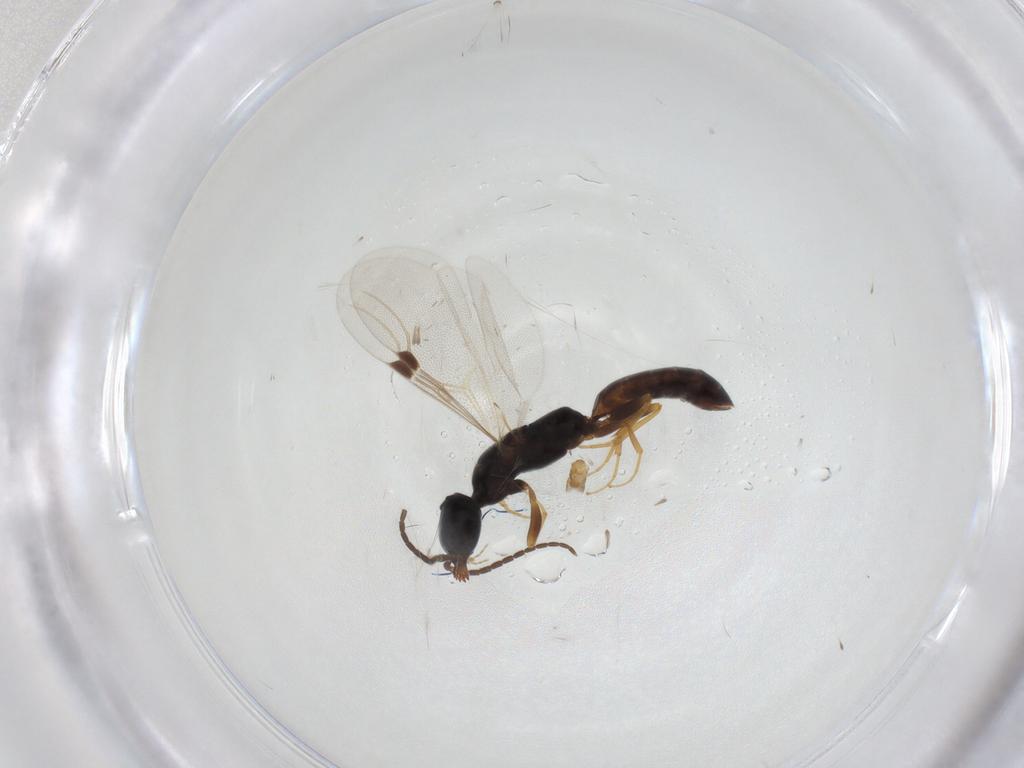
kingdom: Animalia
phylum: Arthropoda
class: Insecta
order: Hymenoptera
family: Bethylidae
